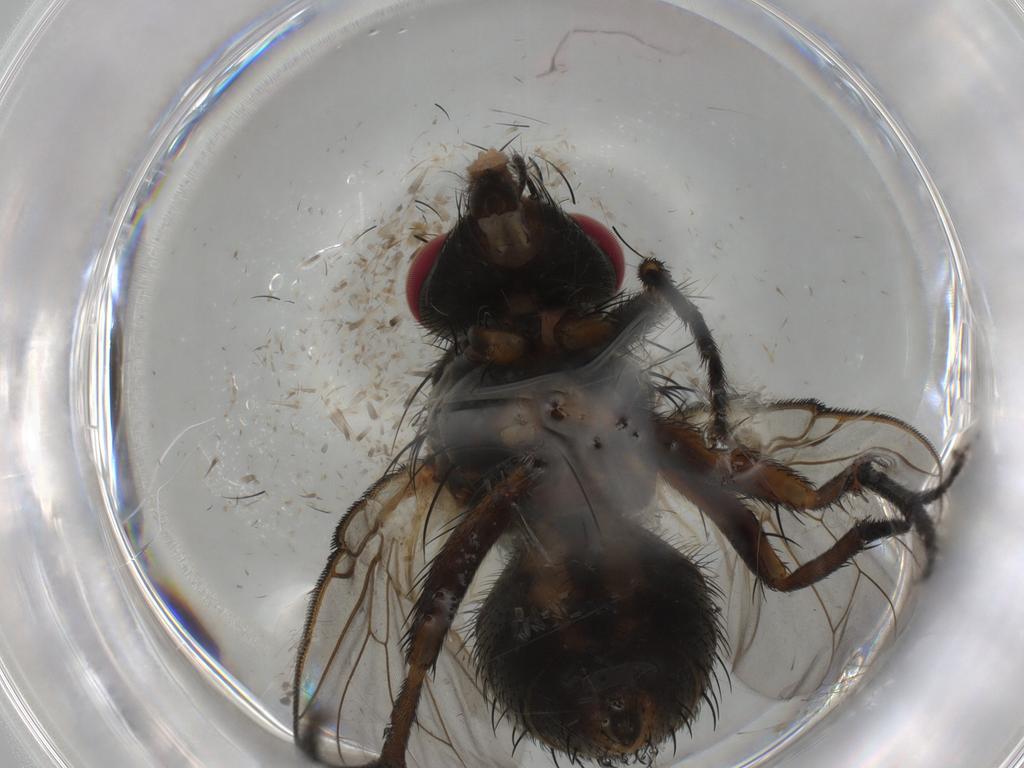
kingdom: Animalia
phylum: Arthropoda
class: Insecta
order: Diptera
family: Muscidae
